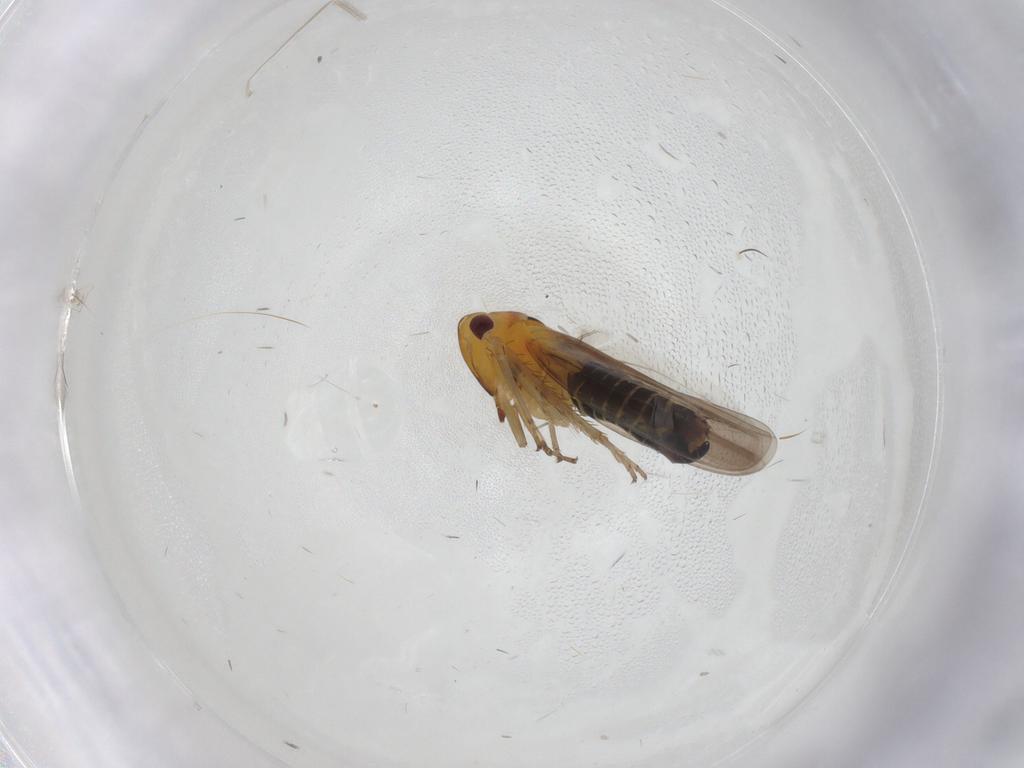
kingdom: Animalia
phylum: Arthropoda
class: Insecta
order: Hemiptera
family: Cicadellidae
